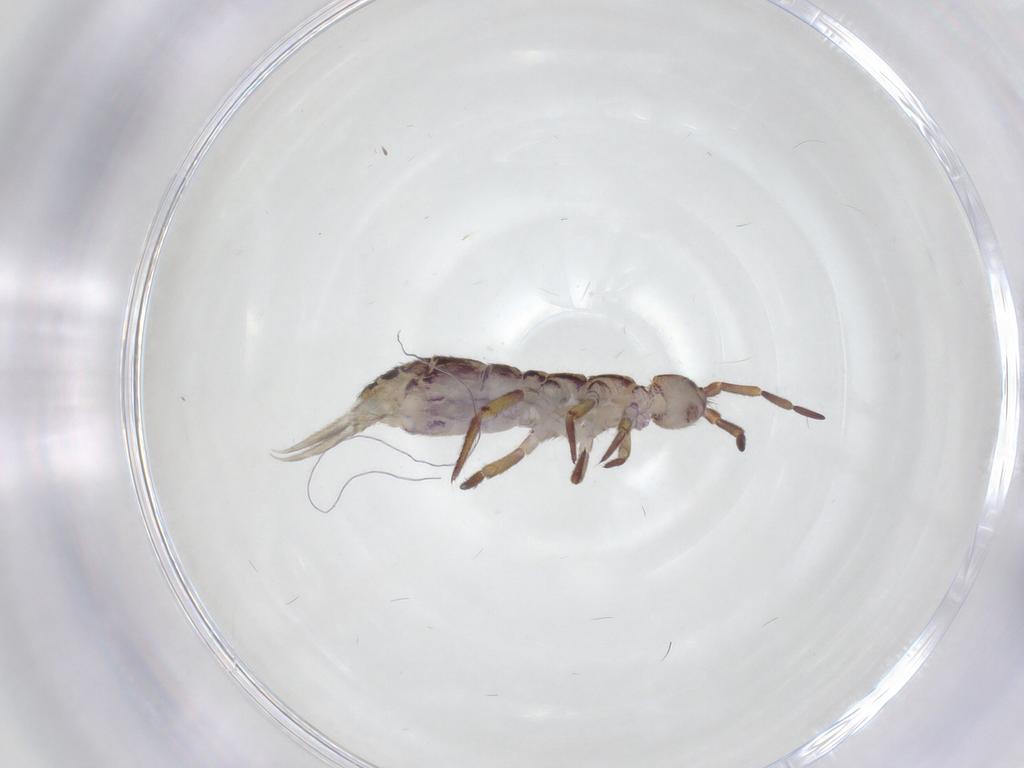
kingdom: Animalia
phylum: Arthropoda
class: Collembola
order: Entomobryomorpha
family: Isotomidae
